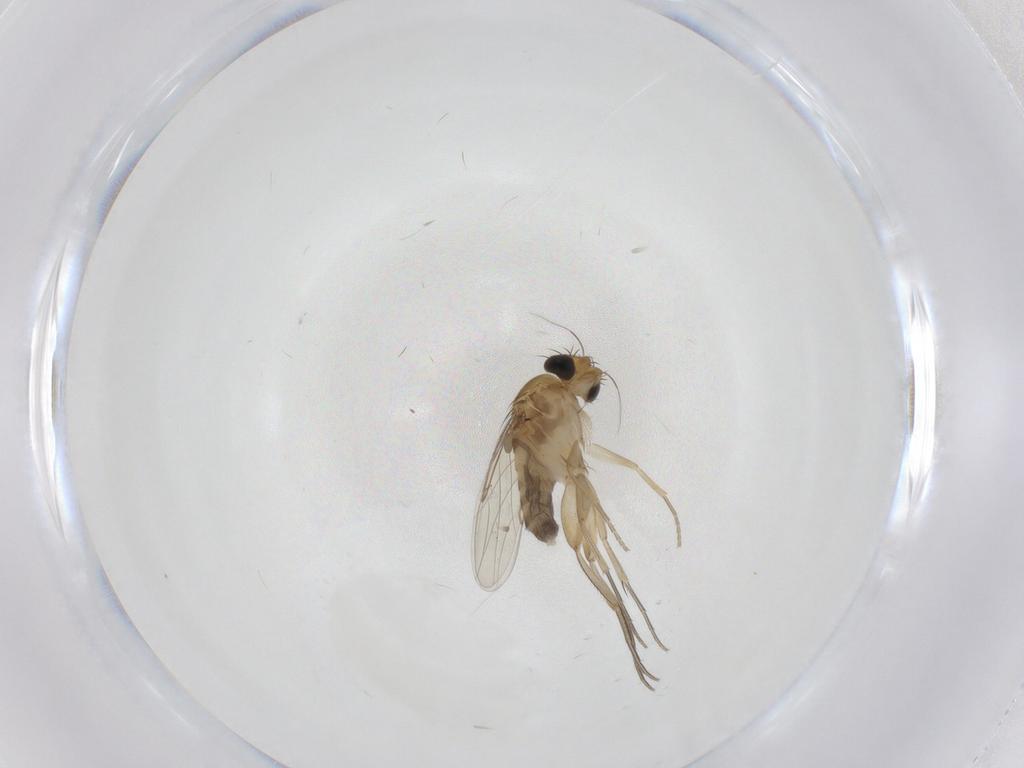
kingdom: Animalia
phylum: Arthropoda
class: Insecta
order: Diptera
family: Phoridae
